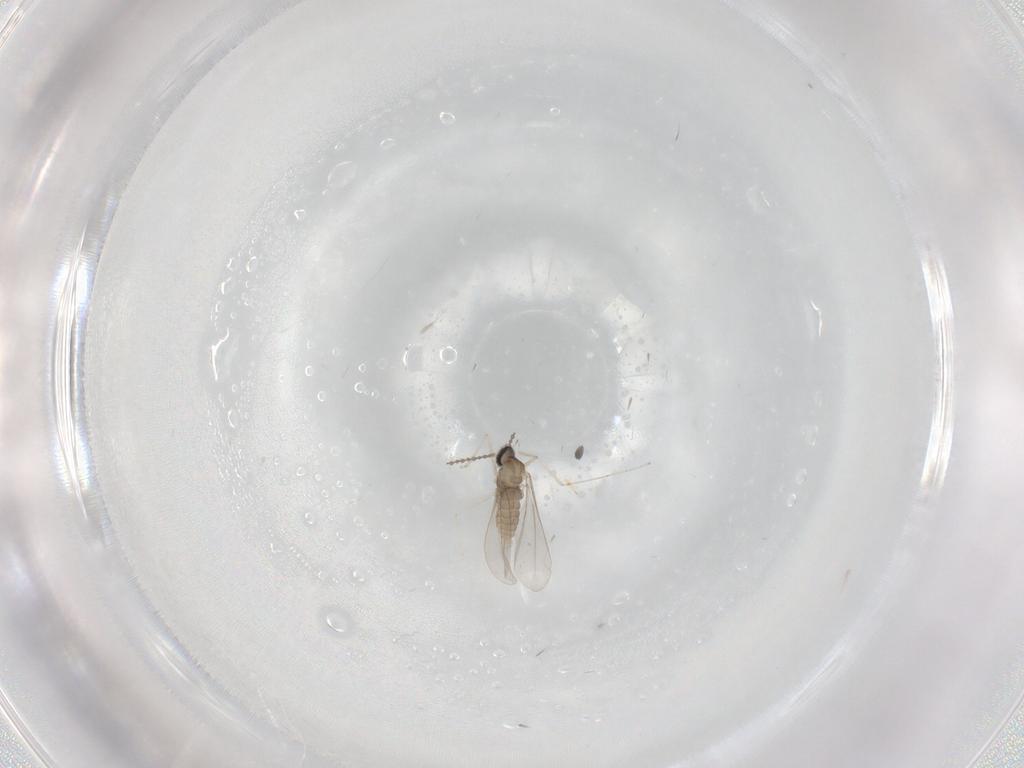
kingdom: Animalia
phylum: Arthropoda
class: Insecta
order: Diptera
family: Cecidomyiidae
